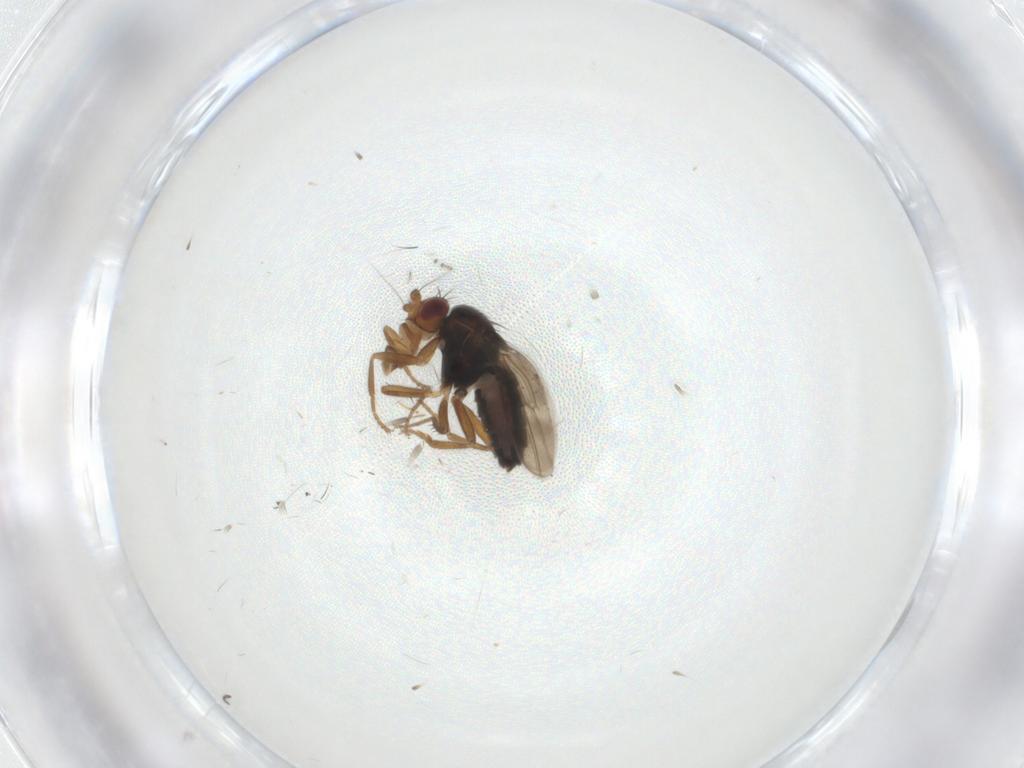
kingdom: Animalia
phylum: Arthropoda
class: Insecta
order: Diptera
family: Sphaeroceridae
